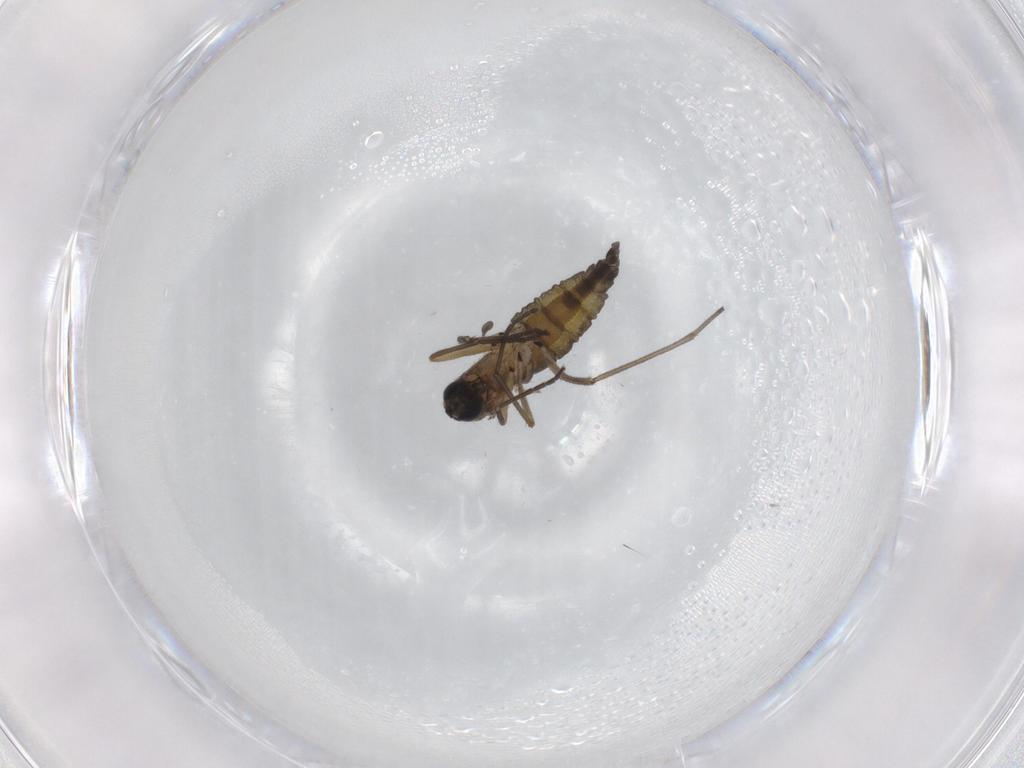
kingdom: Animalia
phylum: Arthropoda
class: Insecta
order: Diptera
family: Sciaridae
